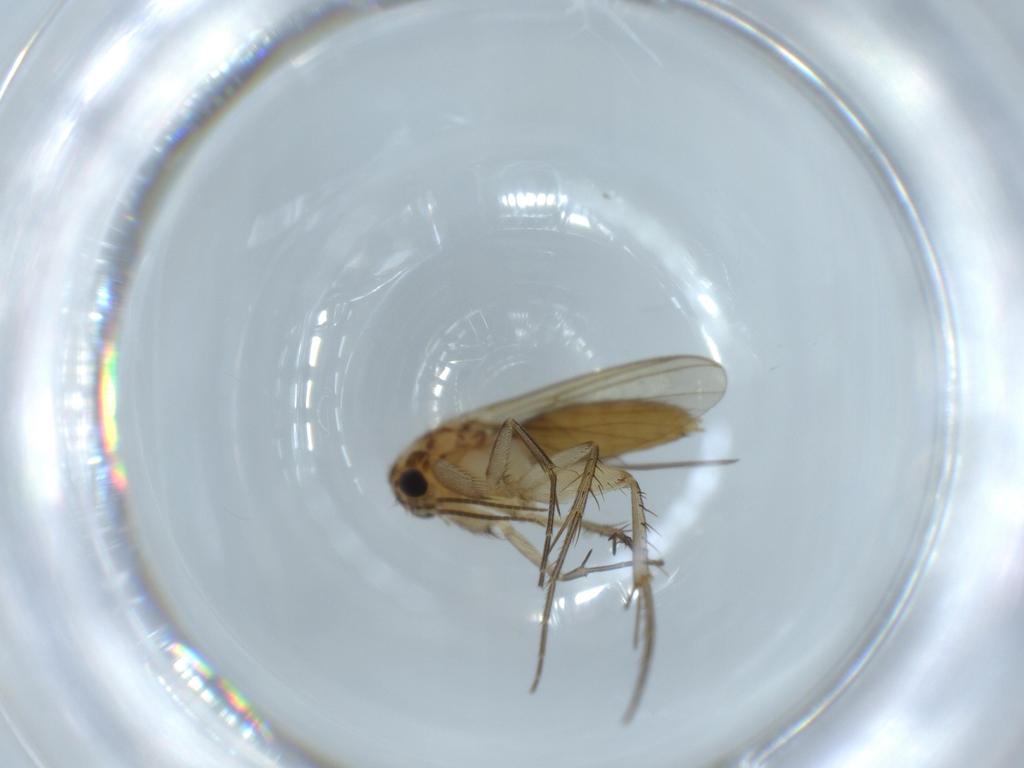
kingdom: Animalia
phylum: Arthropoda
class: Insecta
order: Diptera
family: Mycetophilidae
